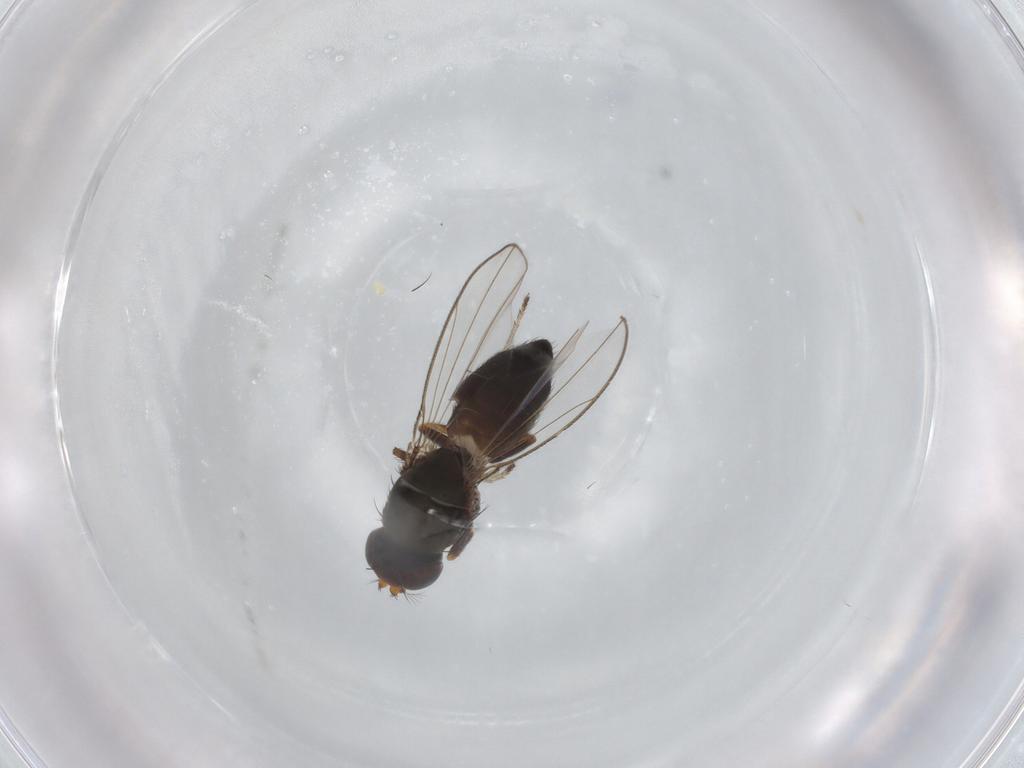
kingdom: Animalia
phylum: Arthropoda
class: Insecta
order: Diptera
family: Ephydridae
